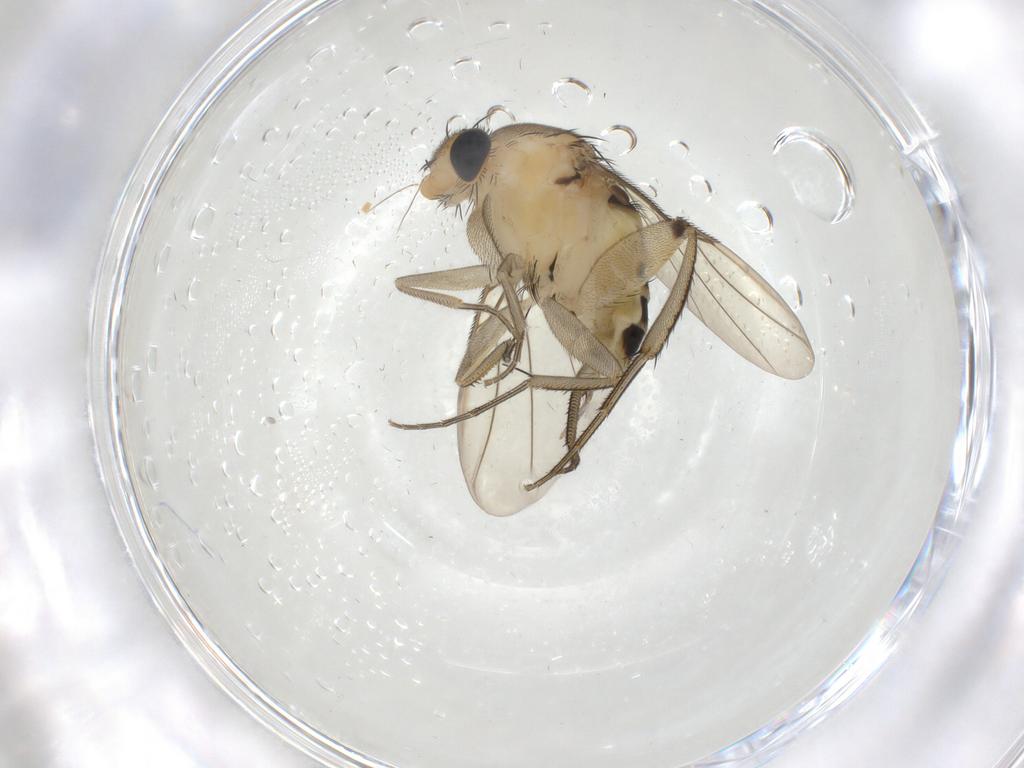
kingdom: Animalia
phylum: Arthropoda
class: Insecta
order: Diptera
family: Phoridae
